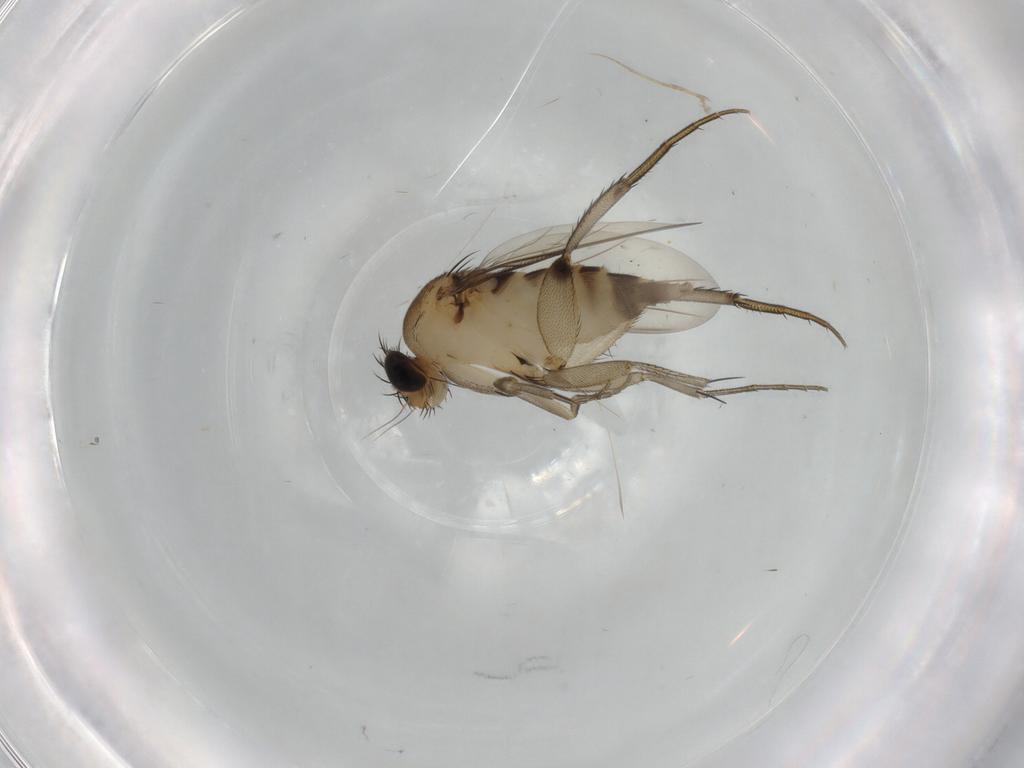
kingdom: Animalia
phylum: Arthropoda
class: Insecta
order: Diptera
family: Phoridae
